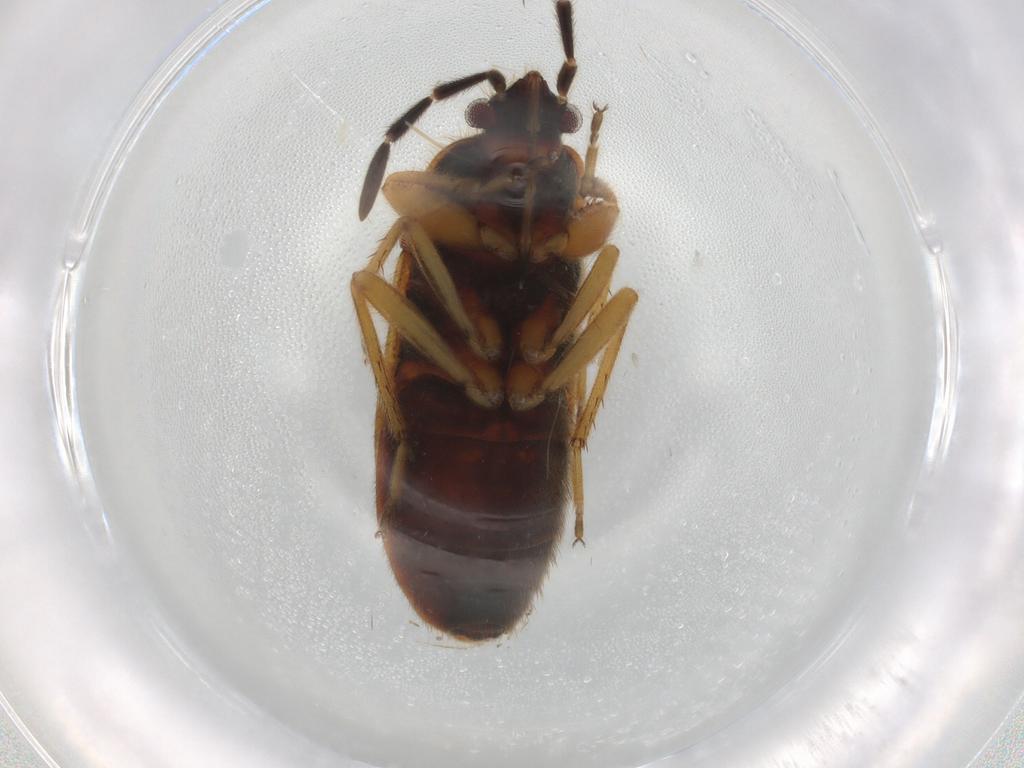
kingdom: Animalia
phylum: Arthropoda
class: Insecta
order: Hemiptera
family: Rhyparochromidae
